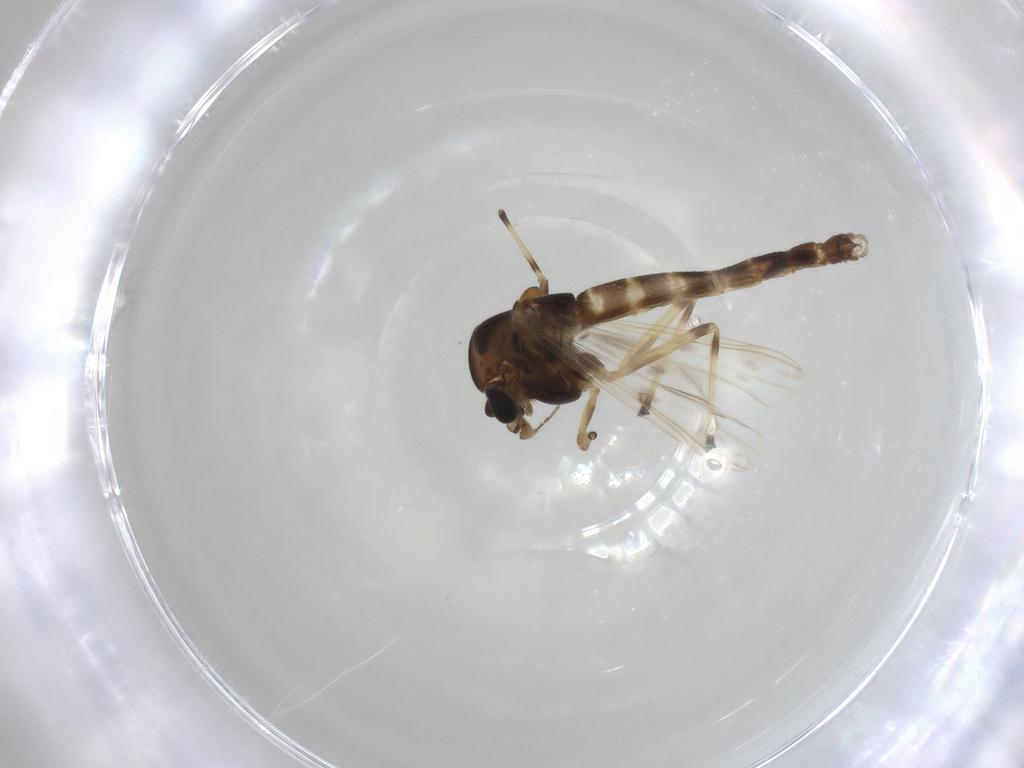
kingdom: Animalia
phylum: Arthropoda
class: Insecta
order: Diptera
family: Chironomidae
